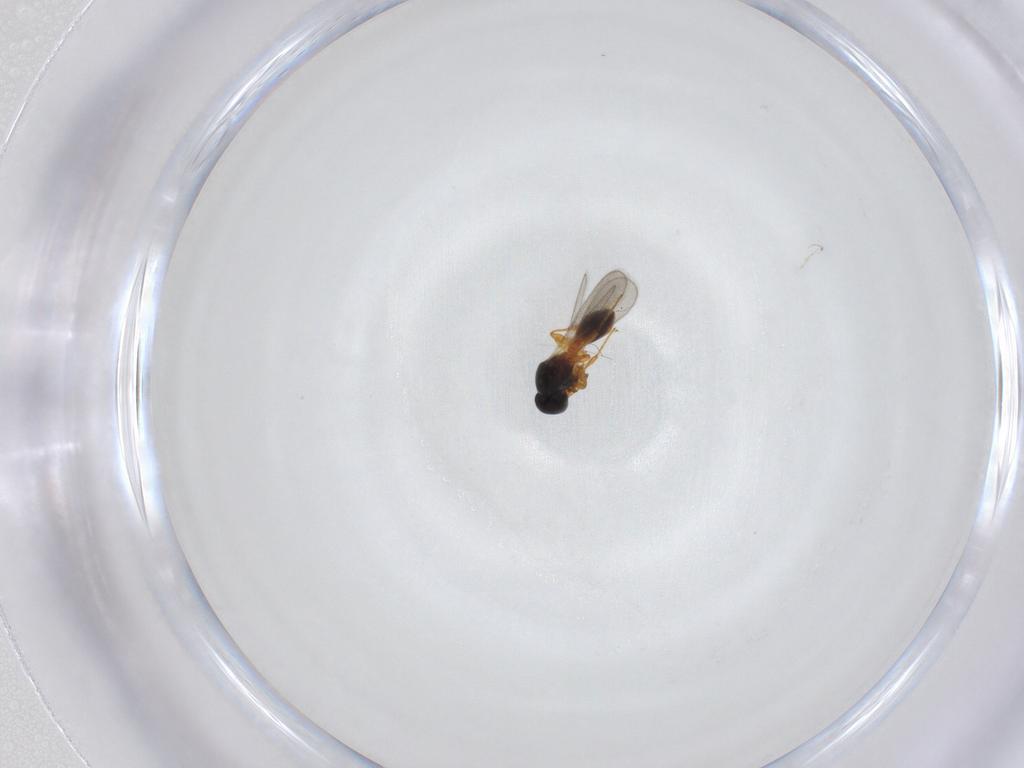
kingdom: Animalia
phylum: Arthropoda
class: Insecta
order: Hymenoptera
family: Platygastridae
